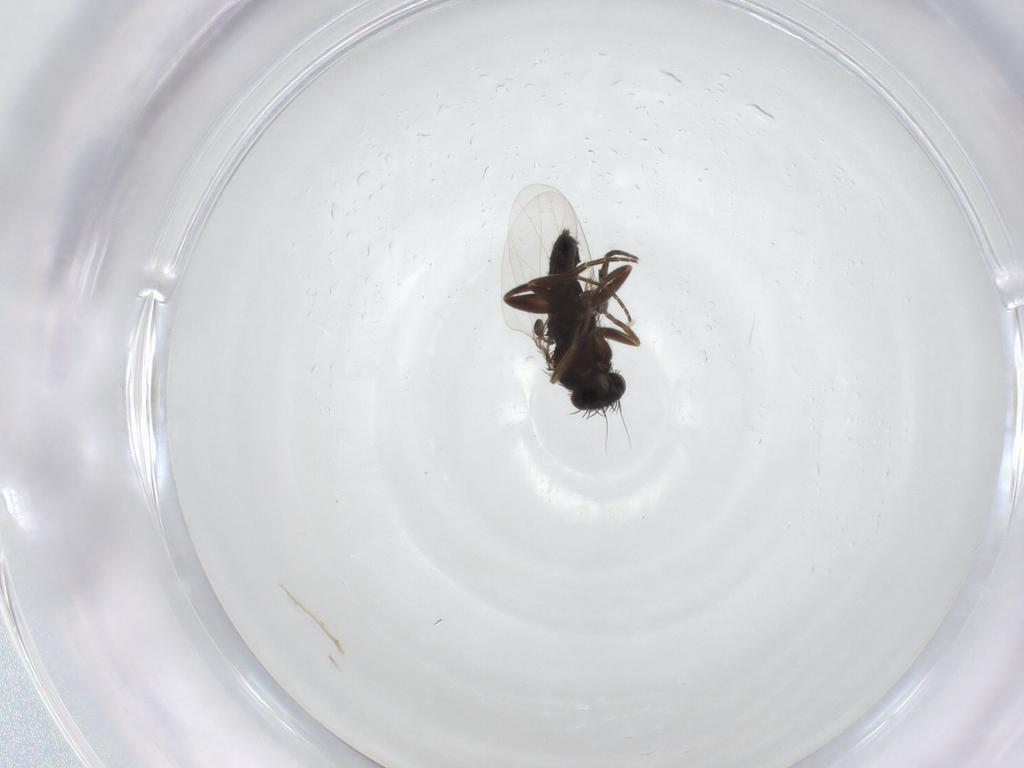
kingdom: Animalia
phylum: Arthropoda
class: Insecta
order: Diptera
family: Phoridae
